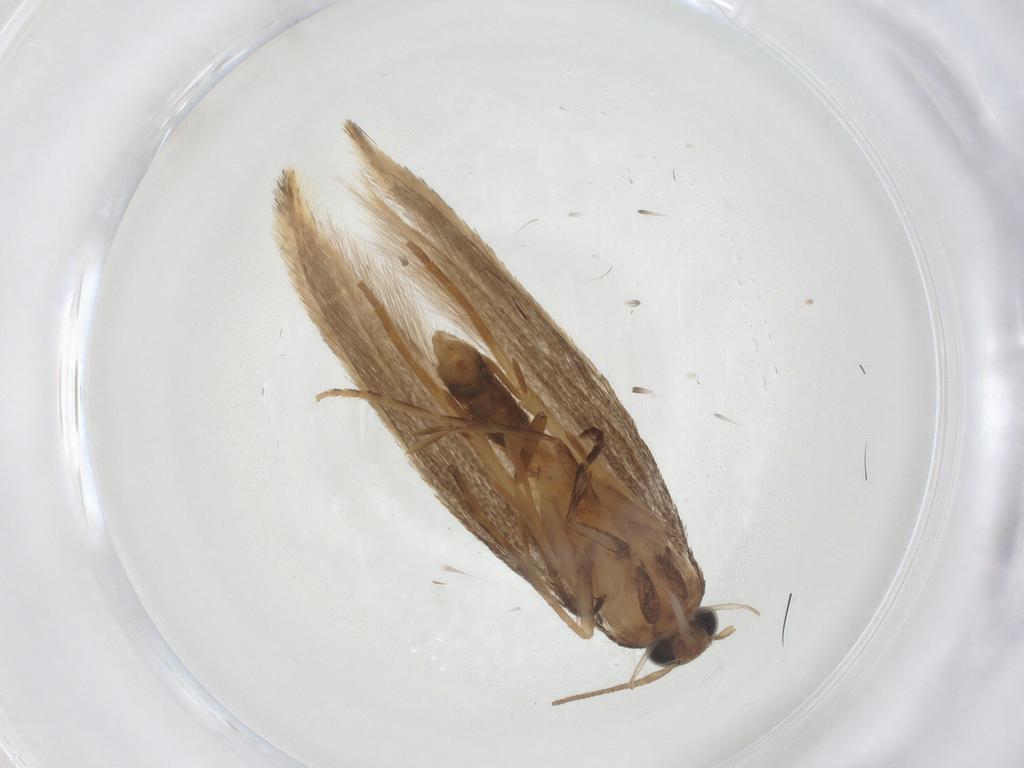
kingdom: Animalia
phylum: Arthropoda
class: Insecta
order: Lepidoptera
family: Elachistidae
